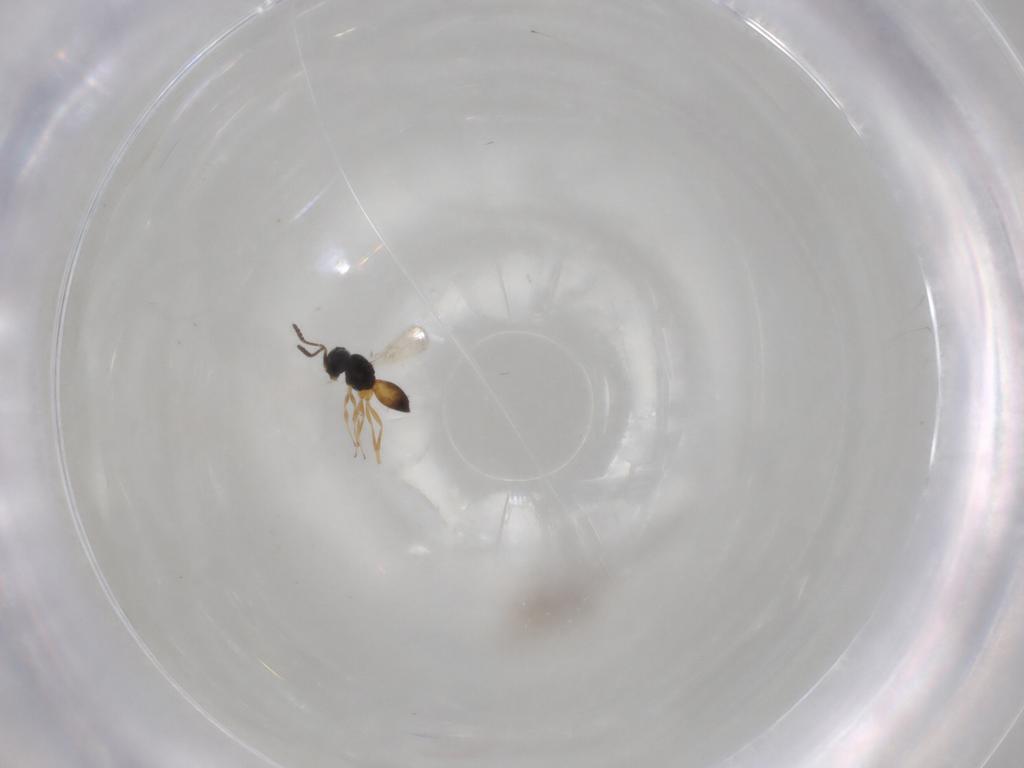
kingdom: Animalia
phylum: Arthropoda
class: Insecta
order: Hymenoptera
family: Scelionidae
